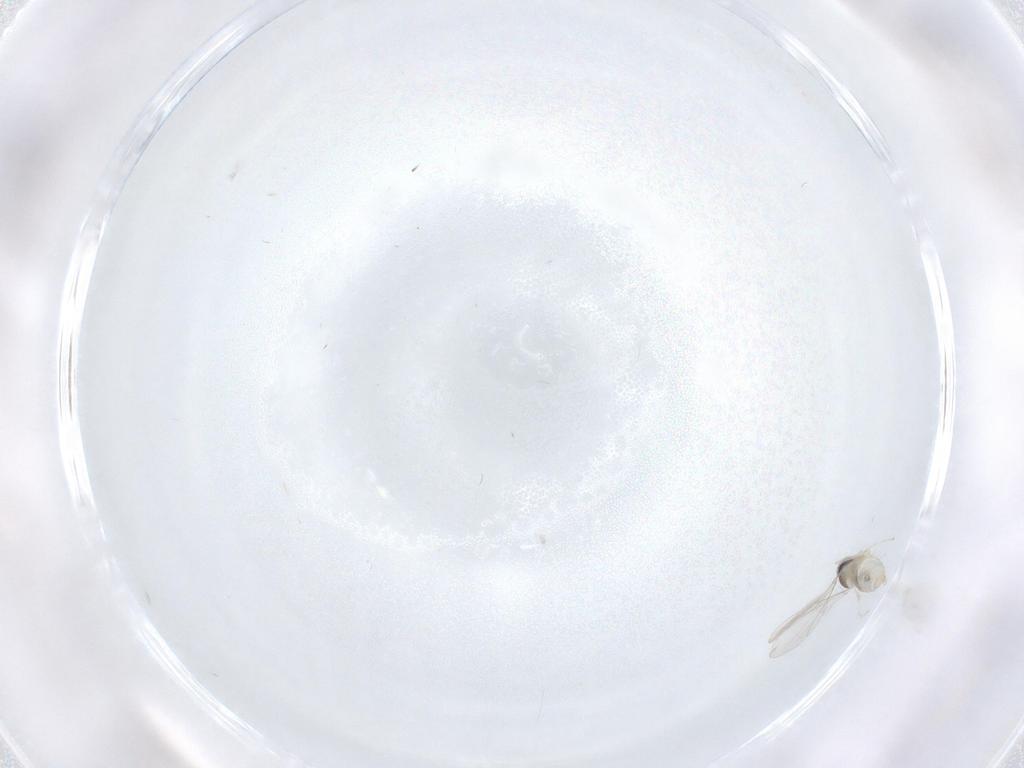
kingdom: Animalia
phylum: Arthropoda
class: Insecta
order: Diptera
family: Cecidomyiidae
